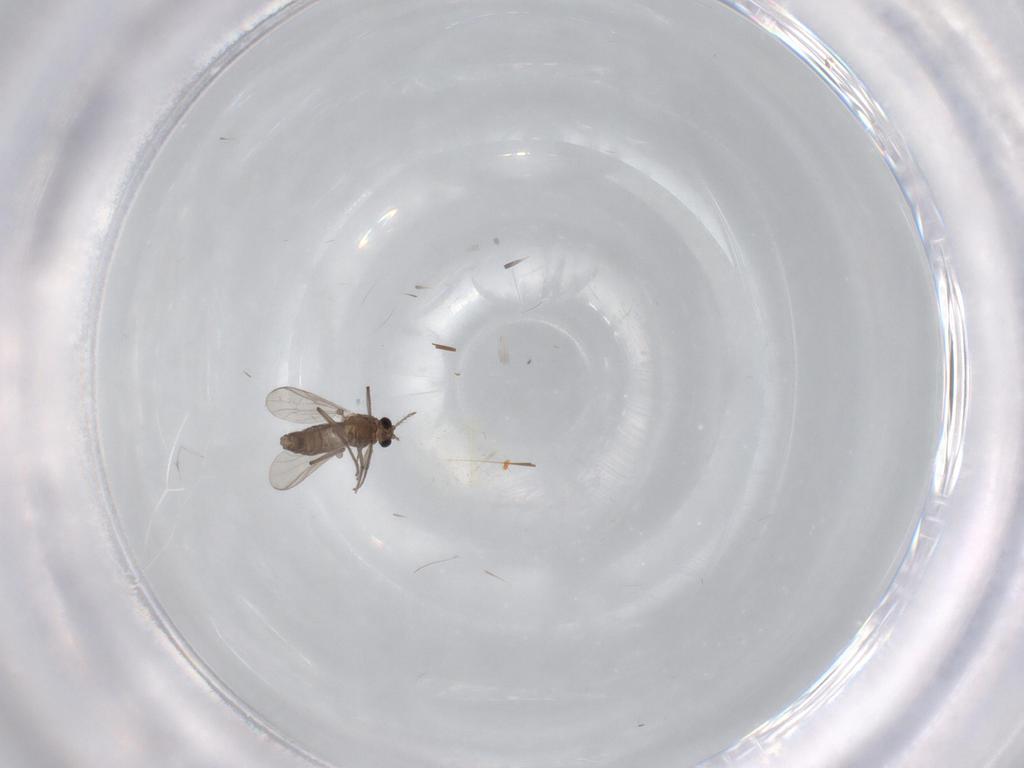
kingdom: Animalia
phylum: Arthropoda
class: Insecta
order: Diptera
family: Chironomidae
